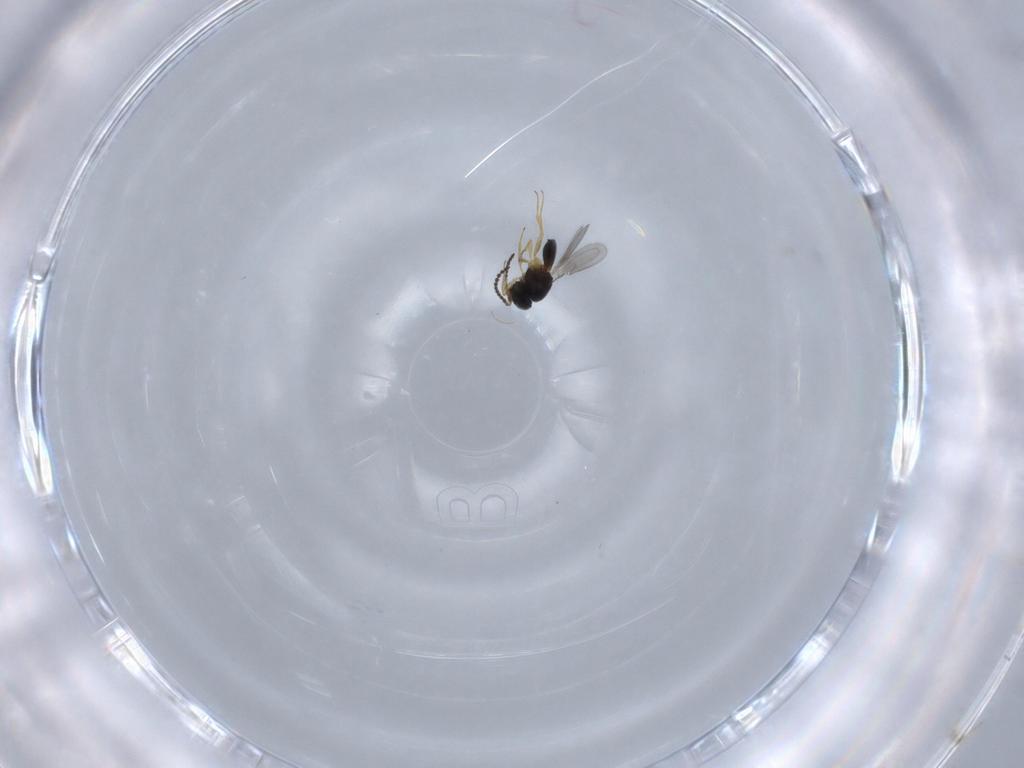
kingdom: Animalia
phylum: Arthropoda
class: Insecta
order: Hymenoptera
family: Scelionidae
